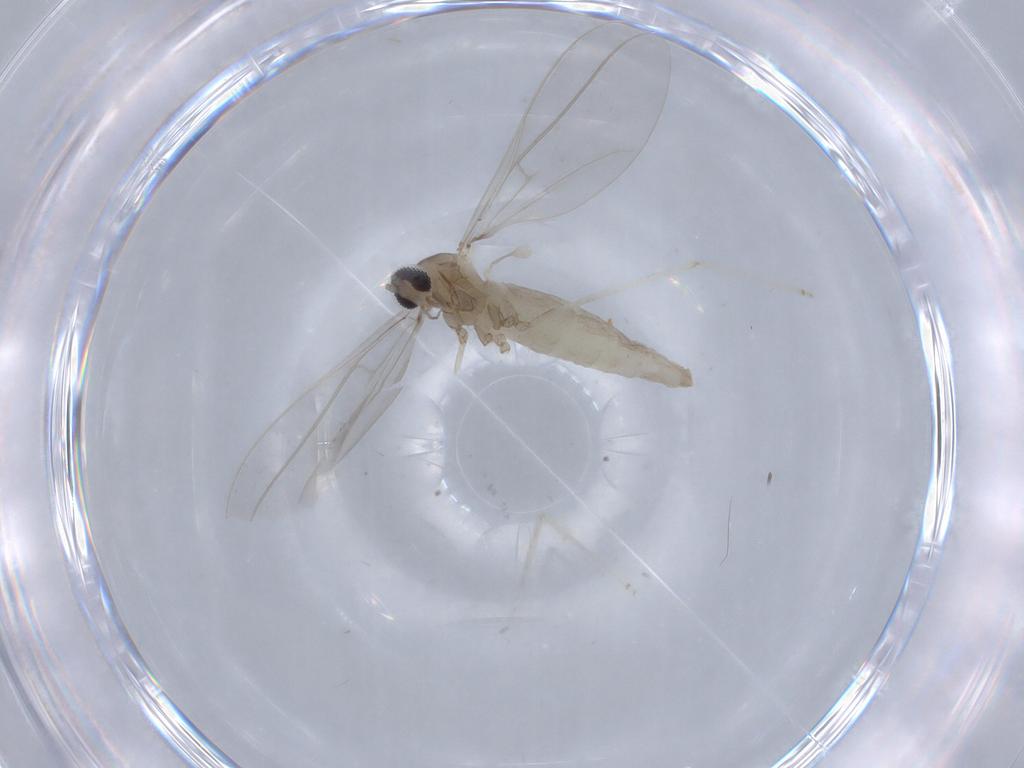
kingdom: Animalia
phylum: Arthropoda
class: Insecta
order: Diptera
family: Cecidomyiidae
